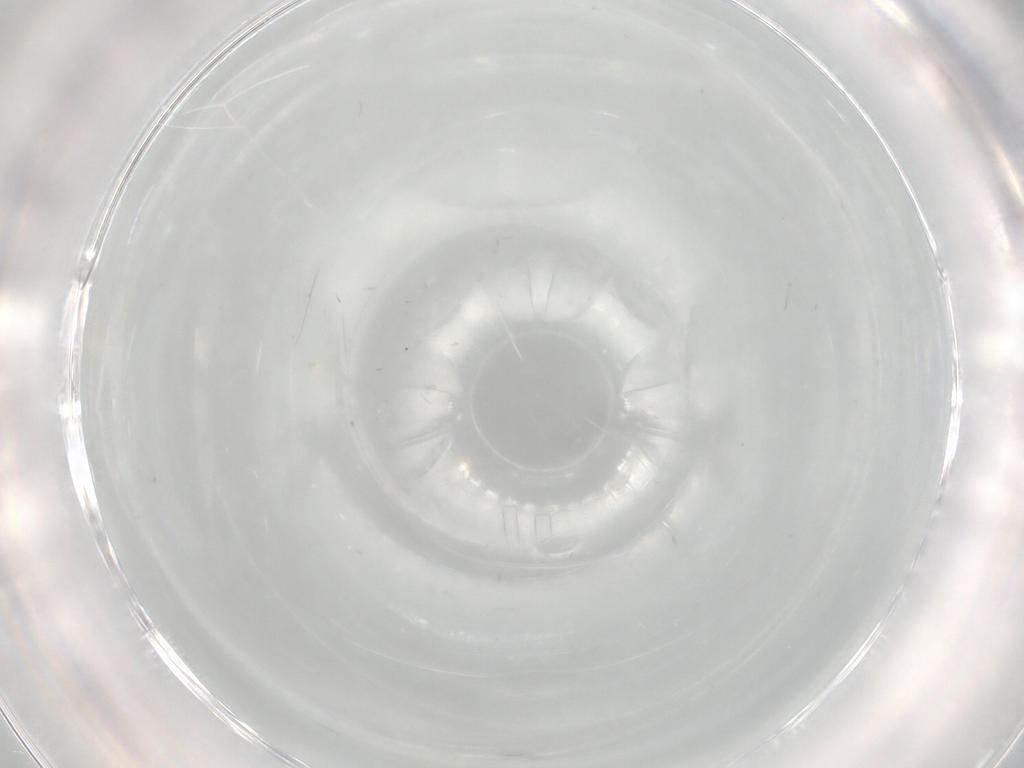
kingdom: Animalia
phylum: Arthropoda
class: Insecta
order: Diptera
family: Cecidomyiidae
